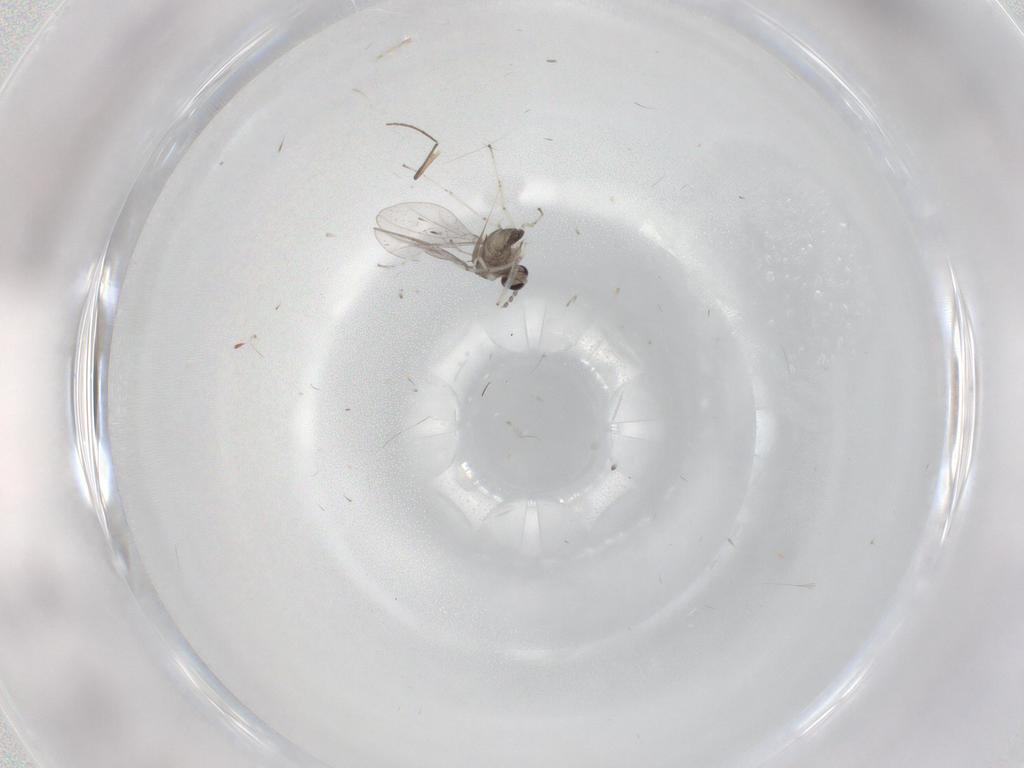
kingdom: Animalia
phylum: Arthropoda
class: Insecta
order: Diptera
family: Cecidomyiidae
